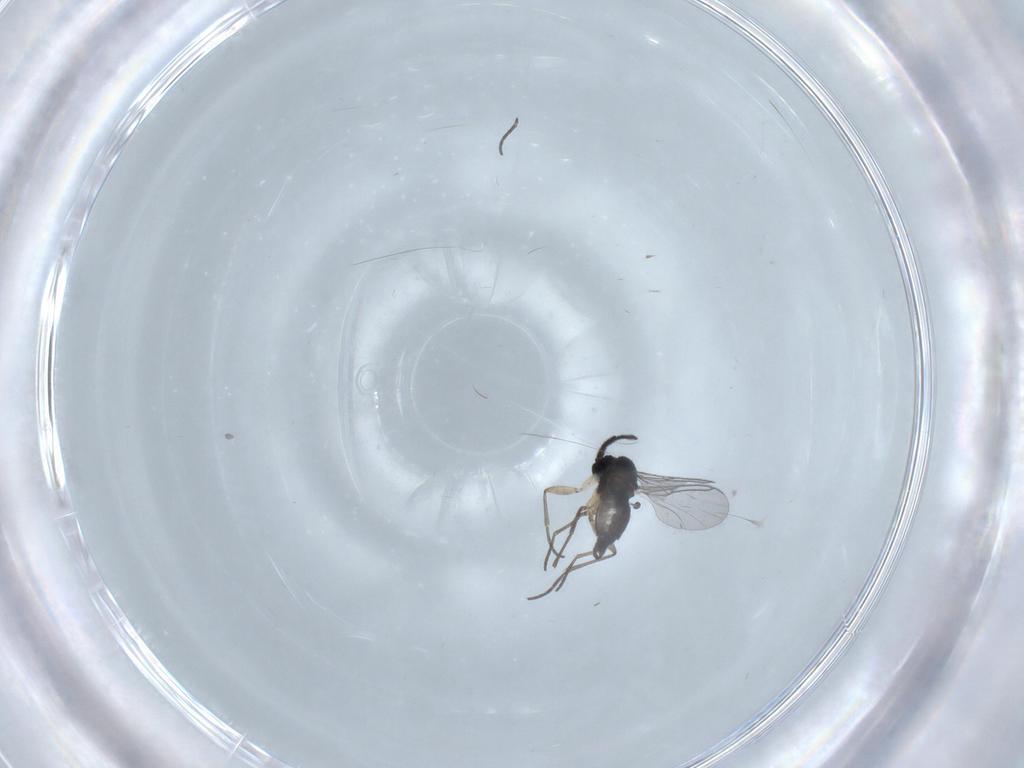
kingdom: Animalia
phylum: Arthropoda
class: Insecta
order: Diptera
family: Sciaridae
